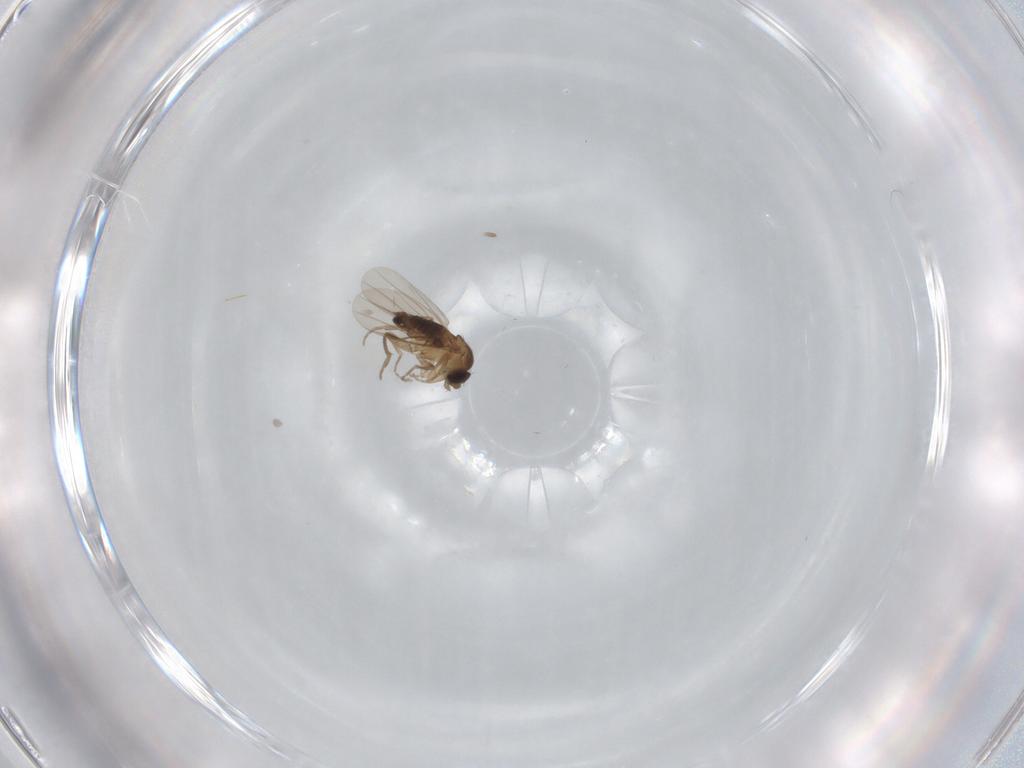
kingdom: Animalia
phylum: Arthropoda
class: Insecta
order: Diptera
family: Phoridae
